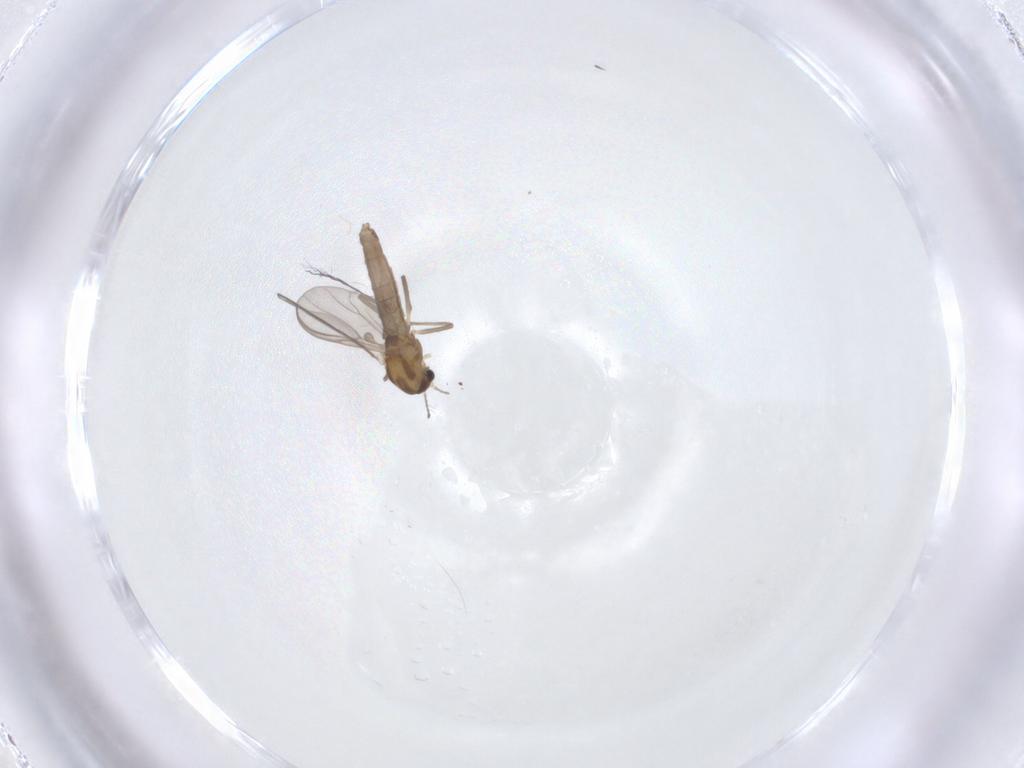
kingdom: Animalia
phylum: Arthropoda
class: Insecta
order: Diptera
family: Chironomidae
